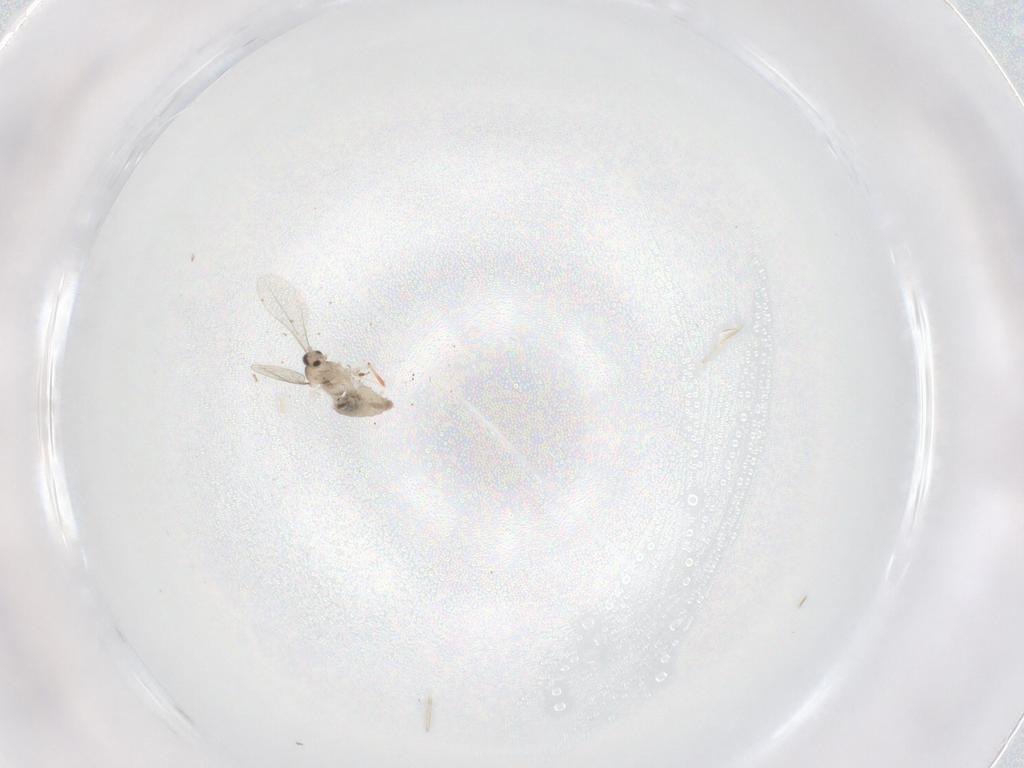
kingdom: Animalia
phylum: Arthropoda
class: Insecta
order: Diptera
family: Cecidomyiidae
